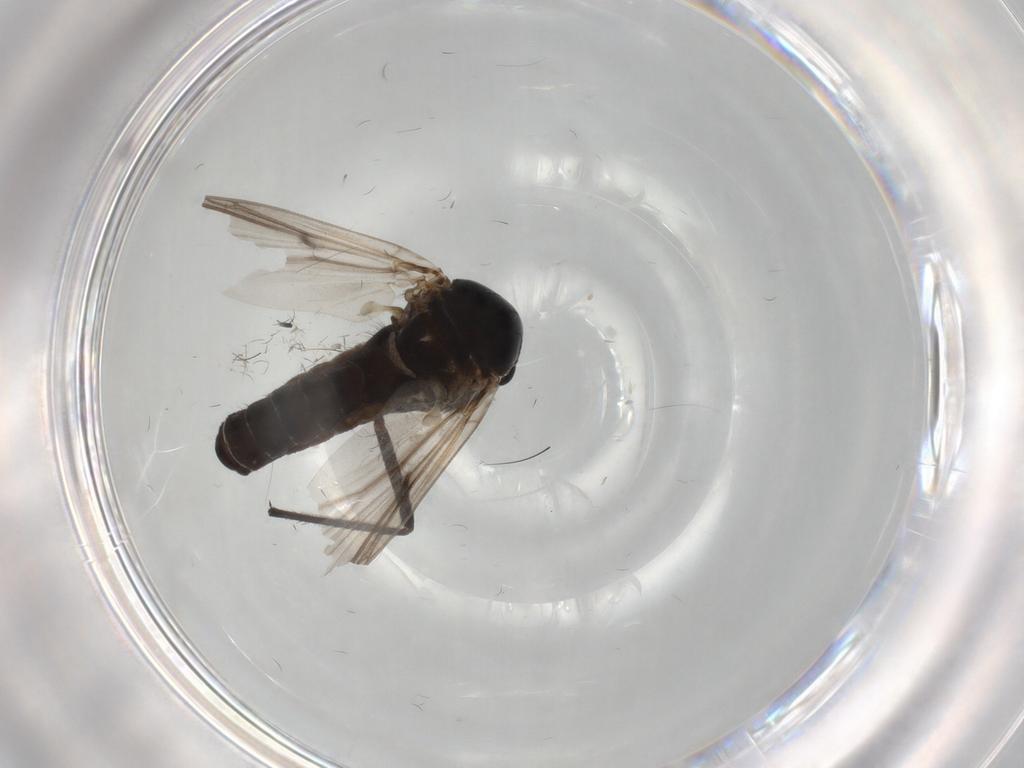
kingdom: Animalia
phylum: Arthropoda
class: Insecta
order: Diptera
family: Chironomidae
